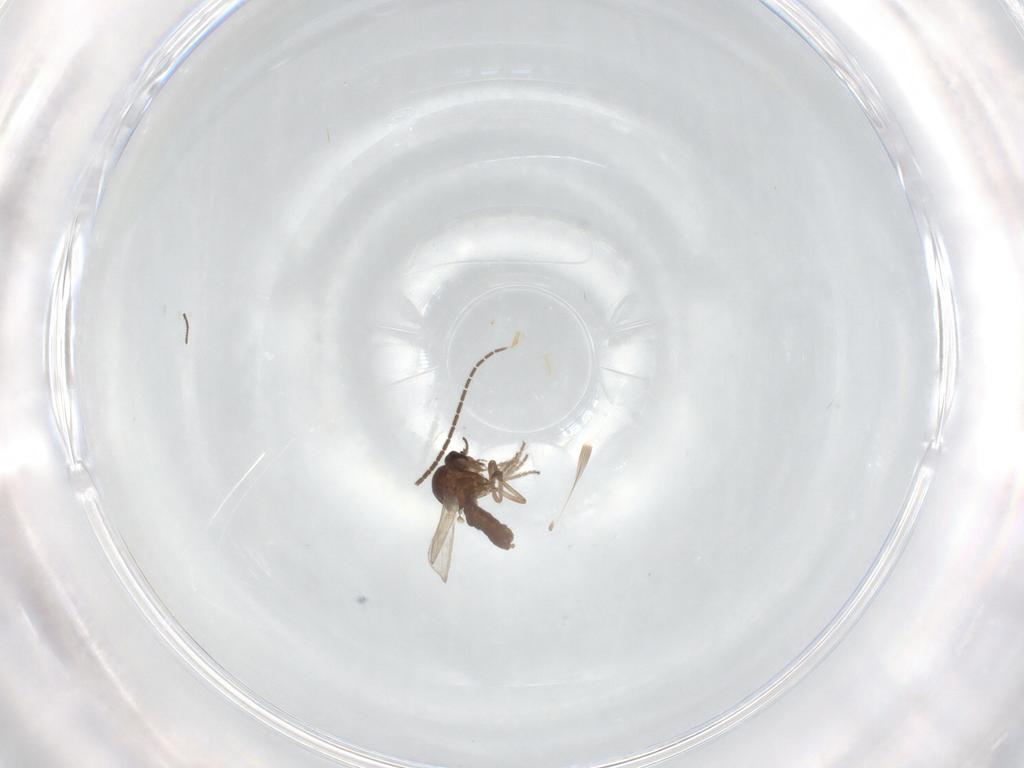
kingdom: Animalia
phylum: Arthropoda
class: Insecta
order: Diptera
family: Ceratopogonidae
